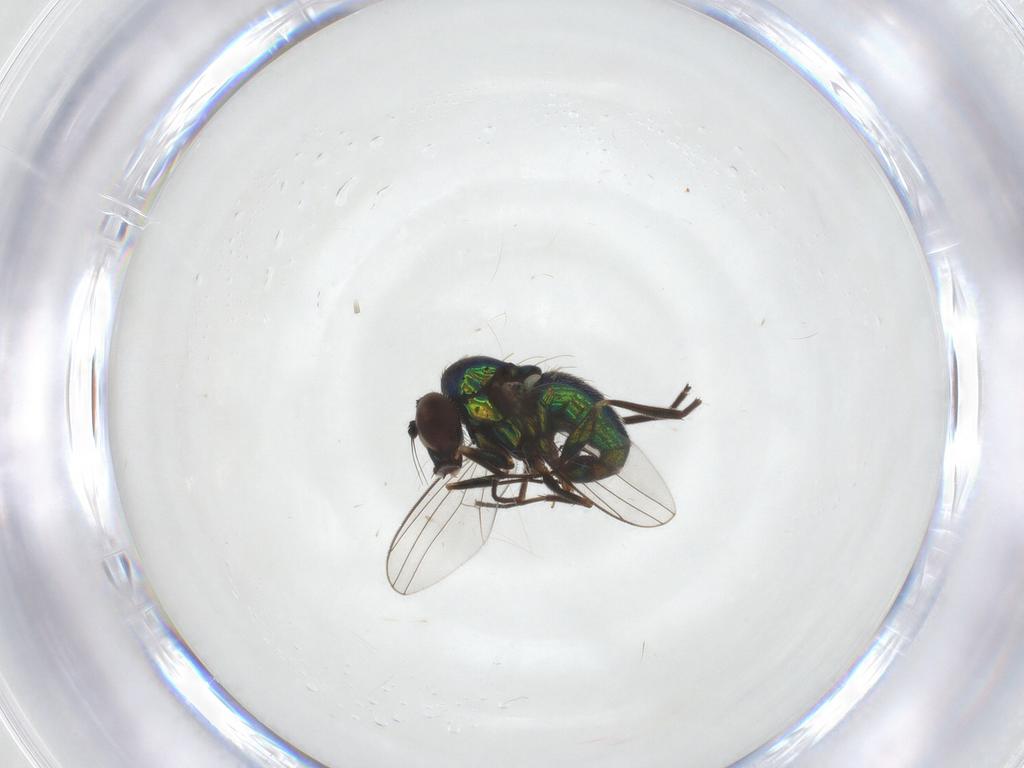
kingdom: Animalia
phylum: Arthropoda
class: Insecta
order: Diptera
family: Dolichopodidae
